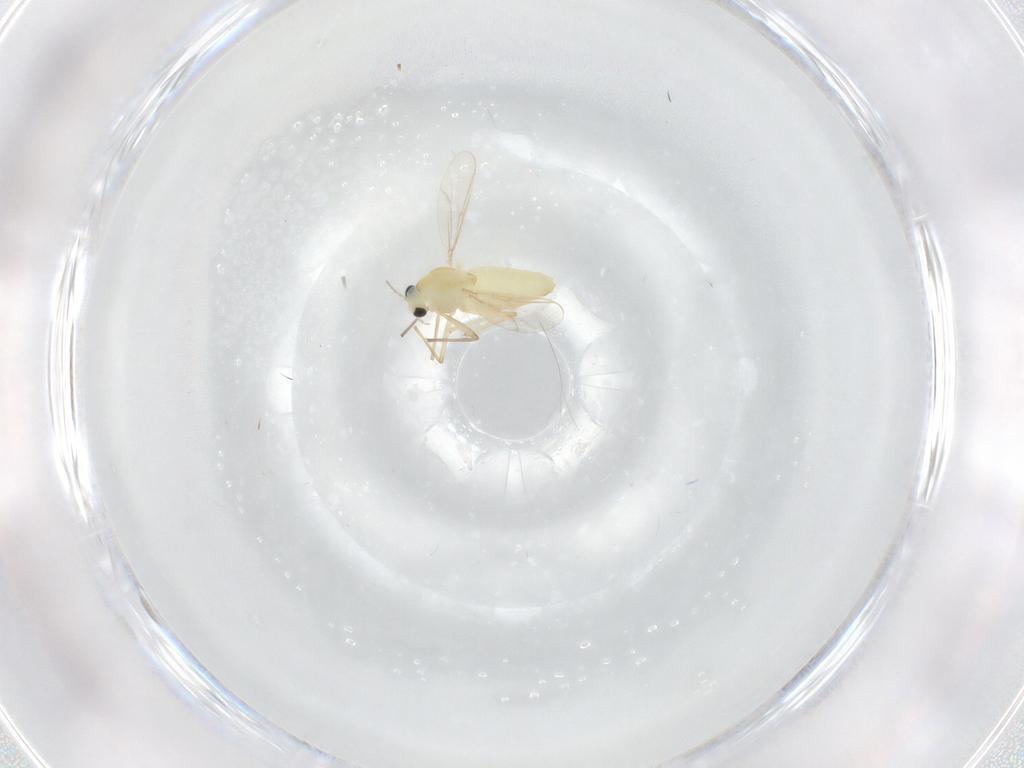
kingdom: Animalia
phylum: Arthropoda
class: Insecta
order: Diptera
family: Chironomidae
